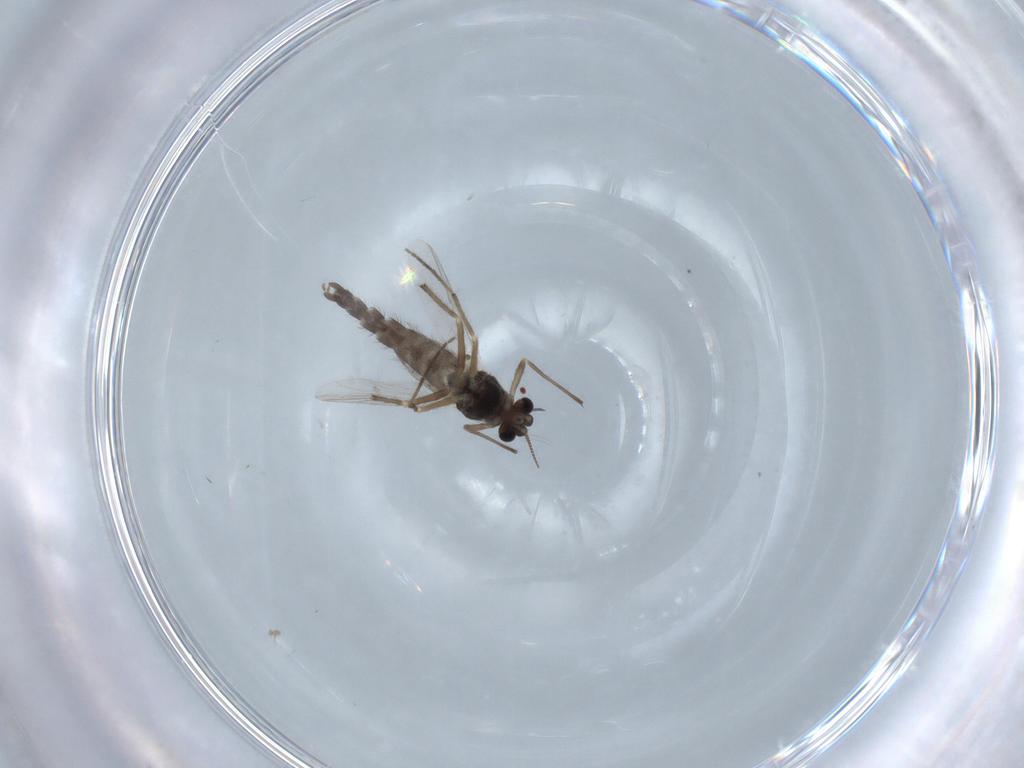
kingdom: Animalia
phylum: Arthropoda
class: Insecta
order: Diptera
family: Chironomidae
